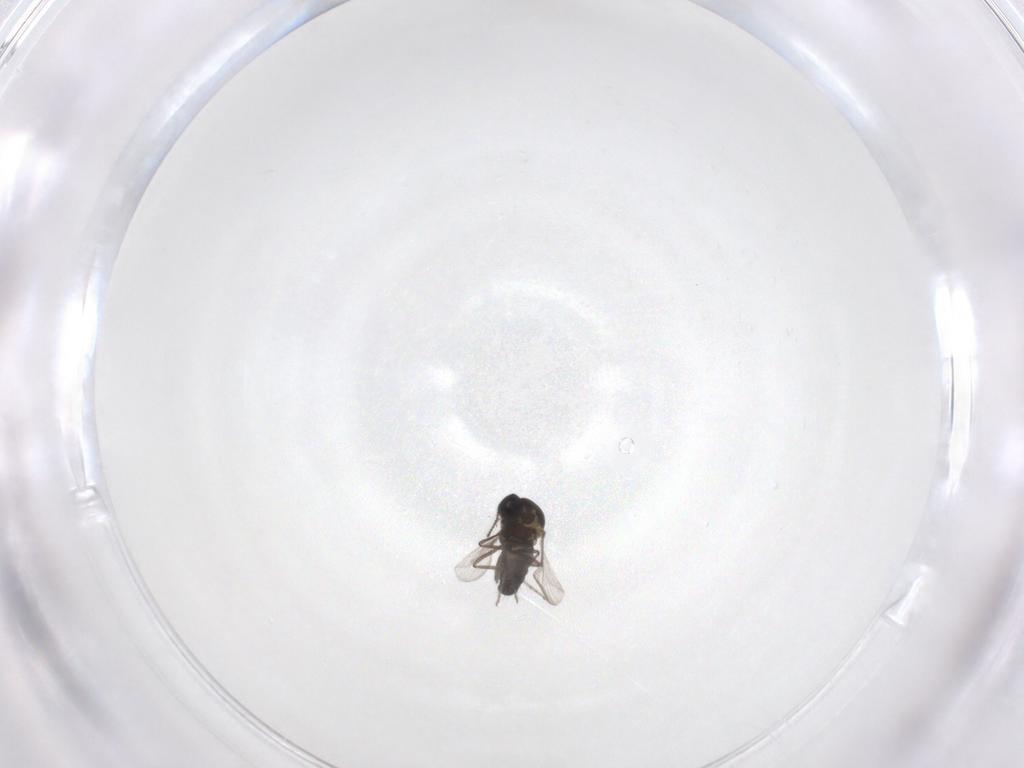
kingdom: Animalia
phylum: Arthropoda
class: Insecta
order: Diptera
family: Ceratopogonidae
